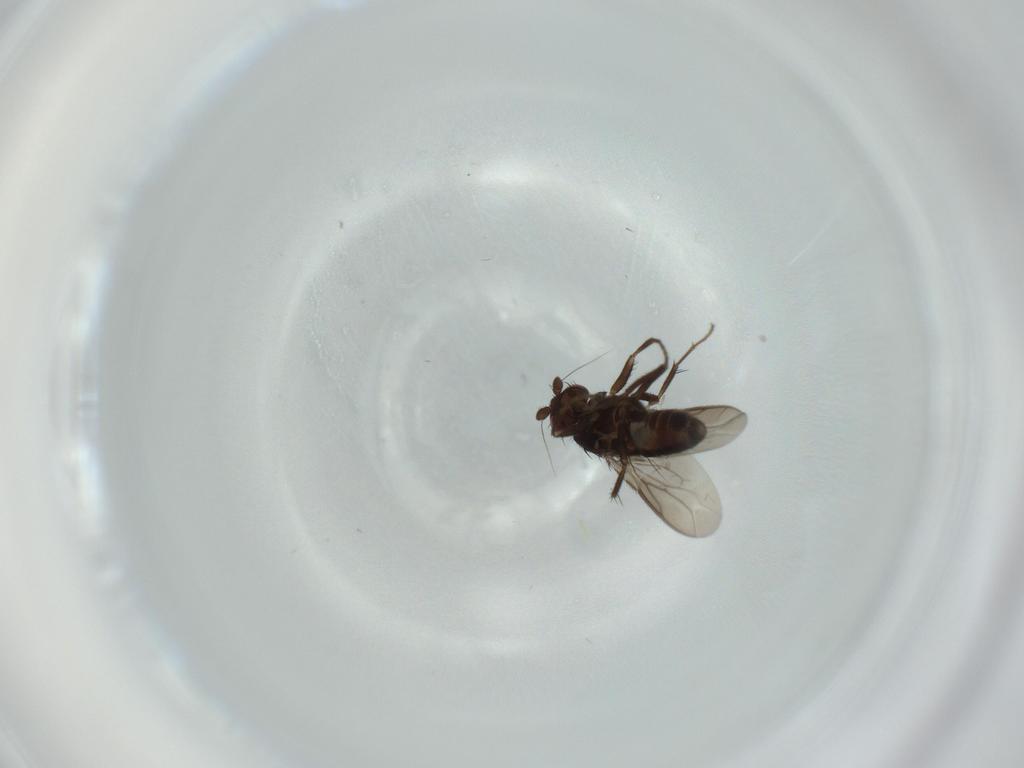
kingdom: Animalia
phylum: Arthropoda
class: Insecta
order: Diptera
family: Sphaeroceridae
